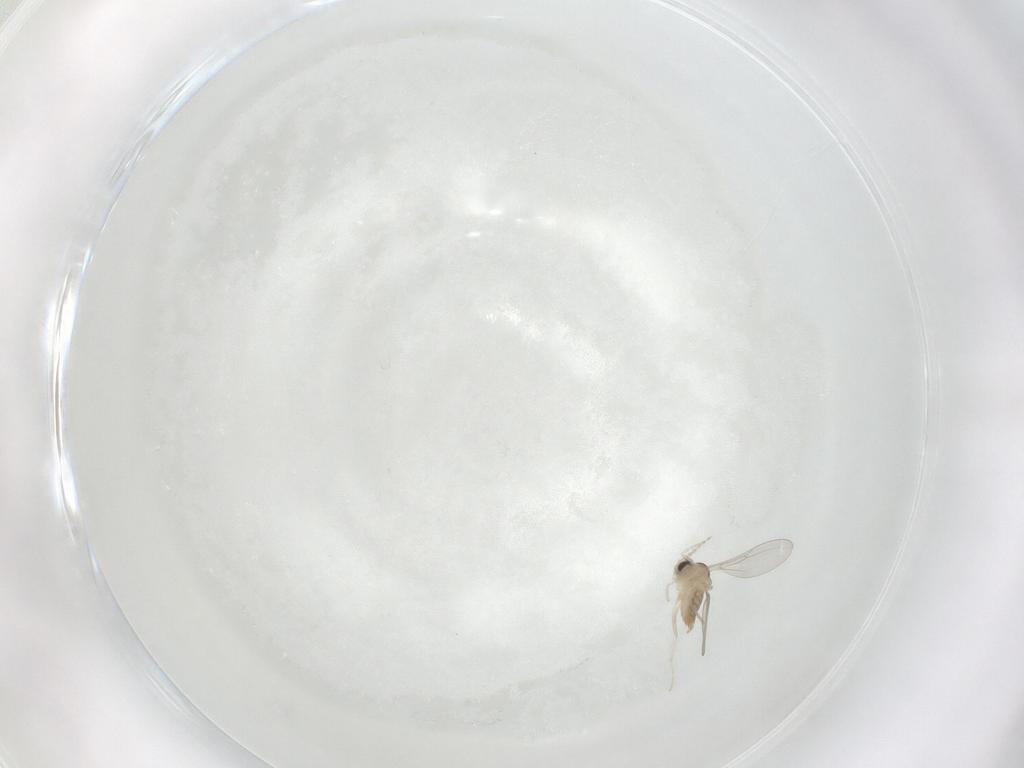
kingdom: Animalia
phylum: Arthropoda
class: Insecta
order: Diptera
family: Cecidomyiidae
